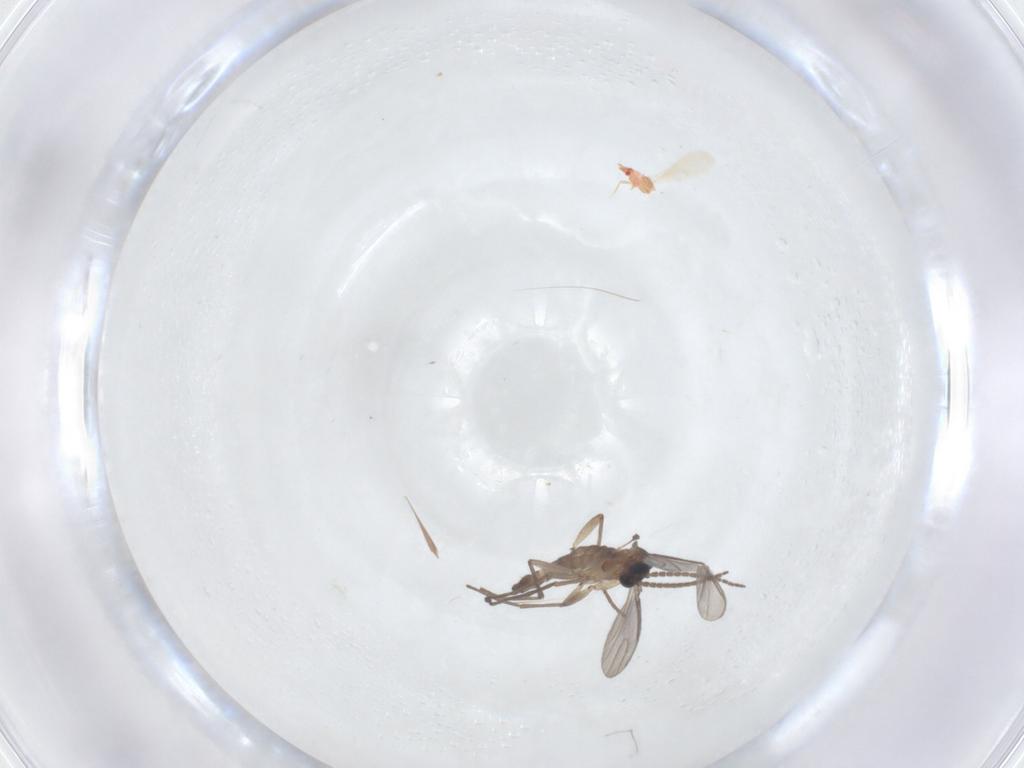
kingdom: Animalia
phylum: Arthropoda
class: Insecta
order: Diptera
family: Sciaridae
